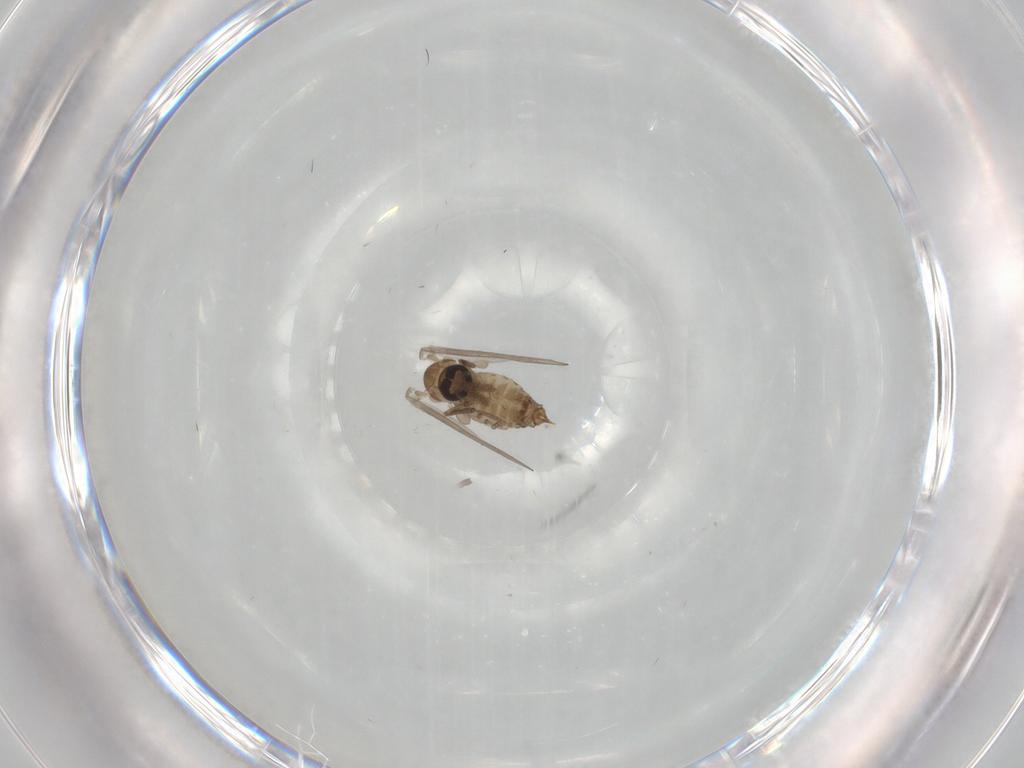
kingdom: Animalia
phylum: Arthropoda
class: Insecta
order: Diptera
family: Psychodidae
